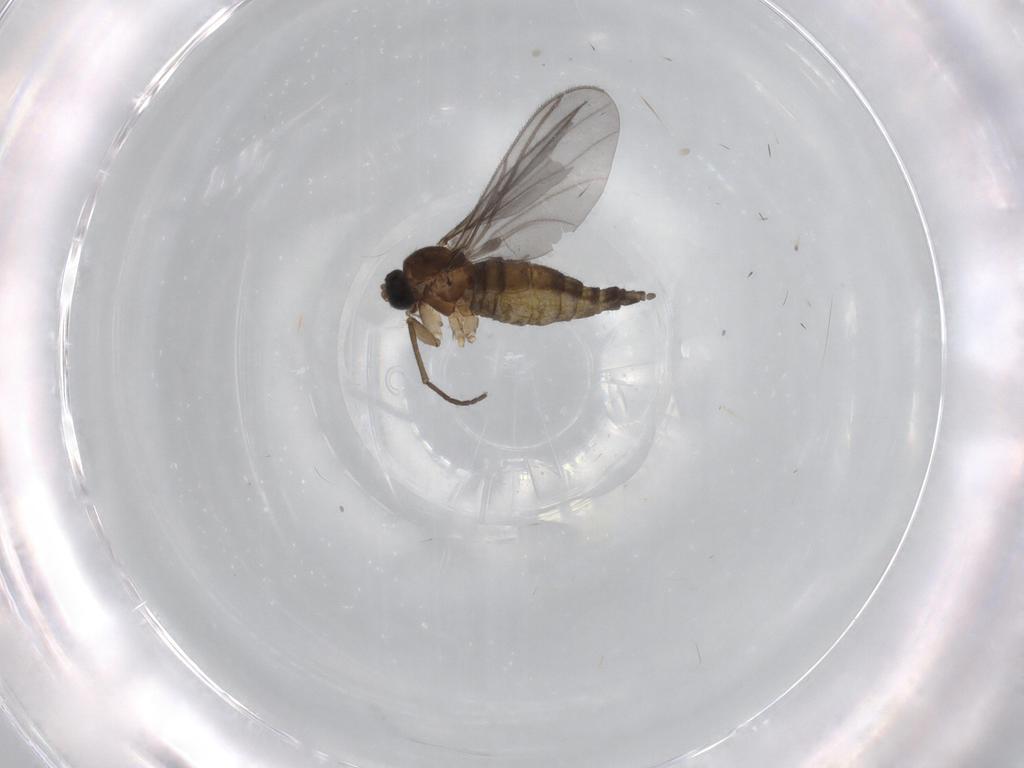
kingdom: Animalia
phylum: Arthropoda
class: Insecta
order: Diptera
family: Sciaridae
